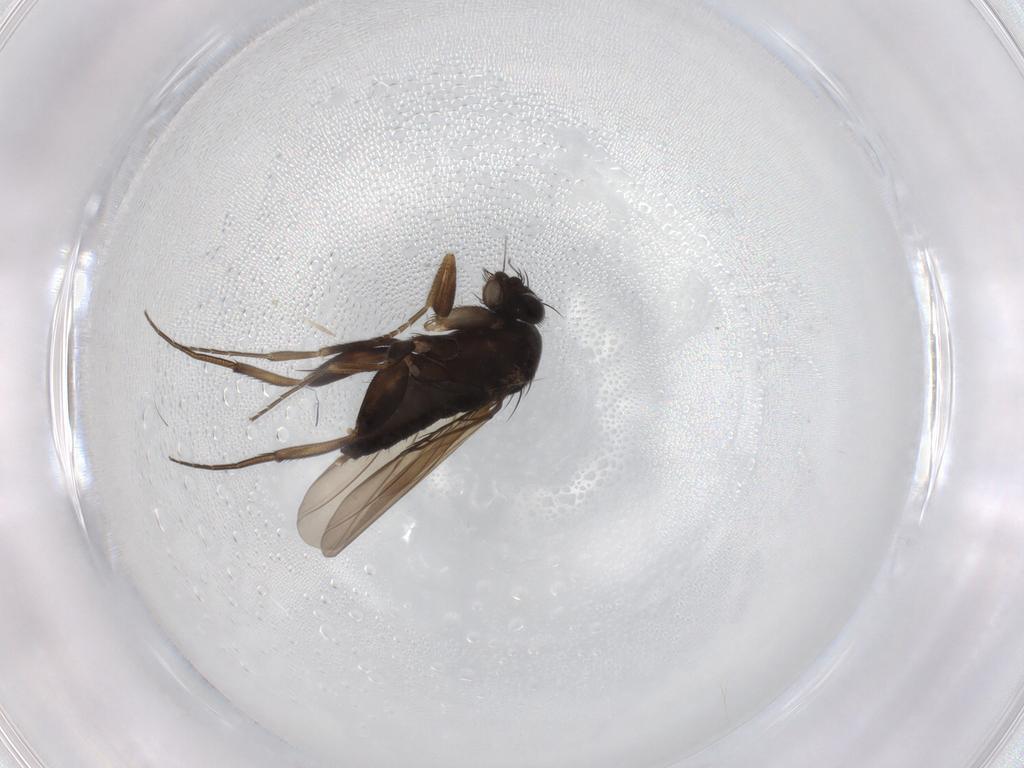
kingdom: Animalia
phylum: Arthropoda
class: Insecta
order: Diptera
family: Phoridae
